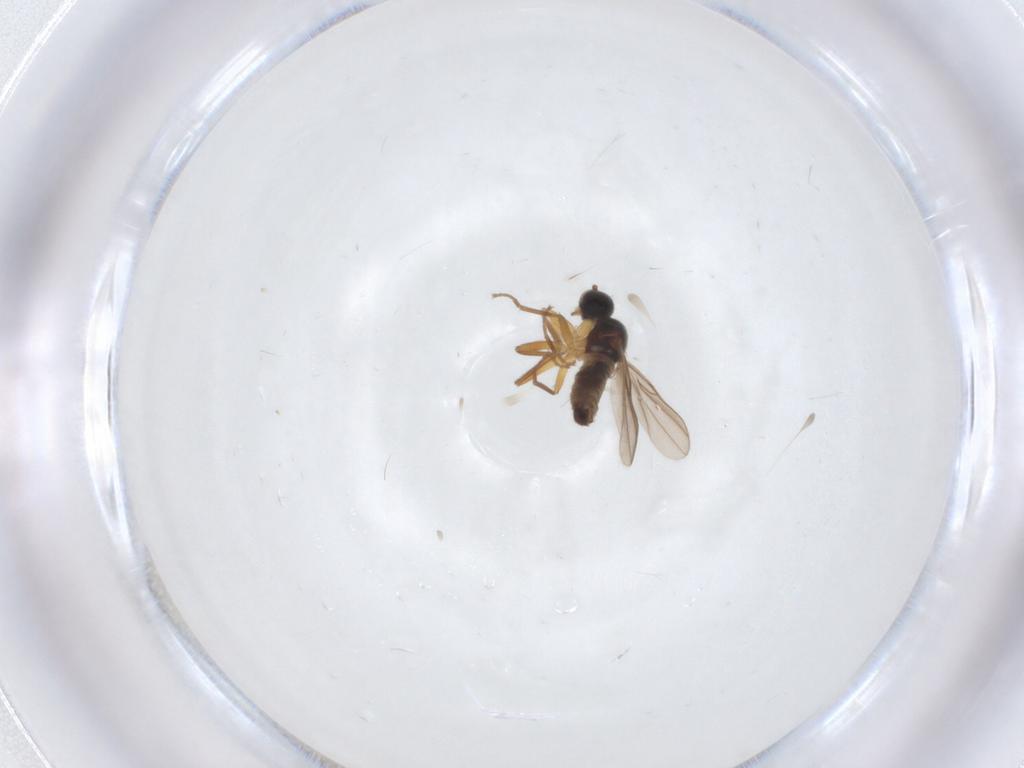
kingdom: Animalia
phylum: Arthropoda
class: Insecta
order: Diptera
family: Hybotidae
